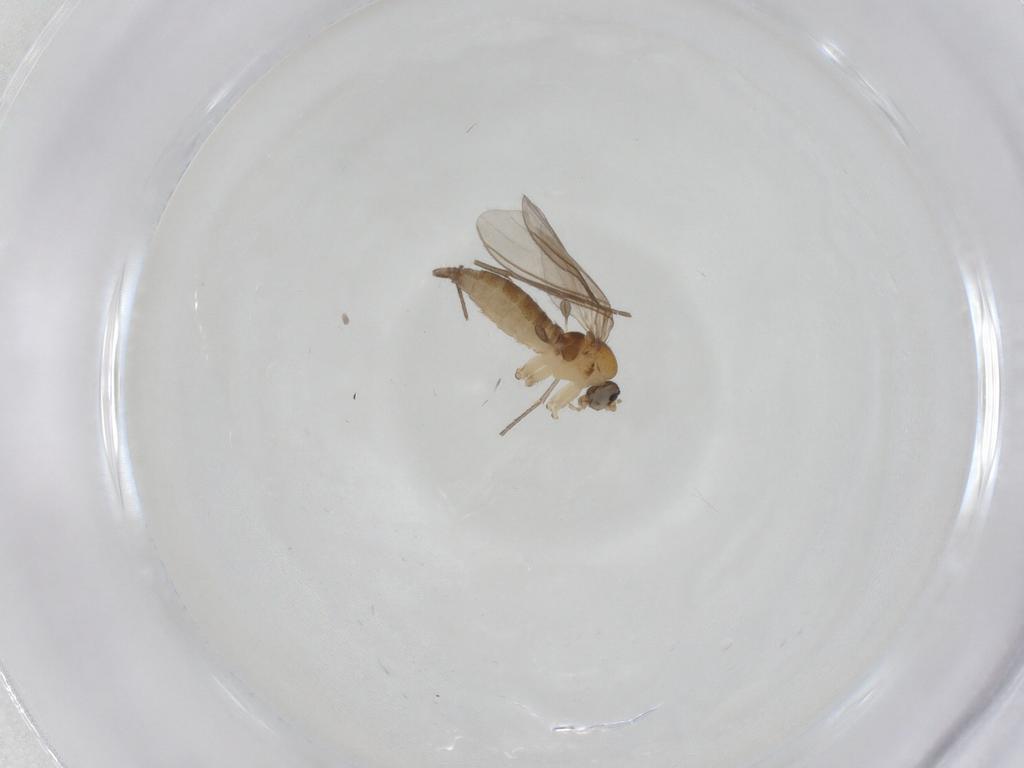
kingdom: Animalia
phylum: Arthropoda
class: Insecta
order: Diptera
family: Sciaridae
